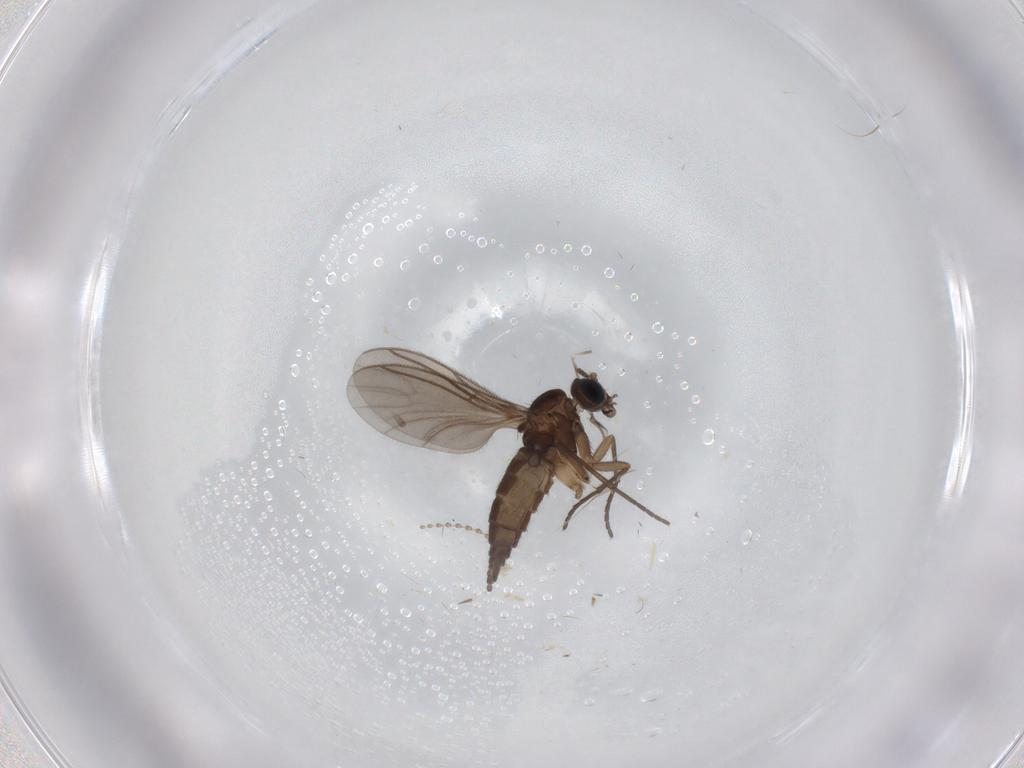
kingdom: Animalia
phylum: Arthropoda
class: Insecta
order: Diptera
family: Sciaridae
